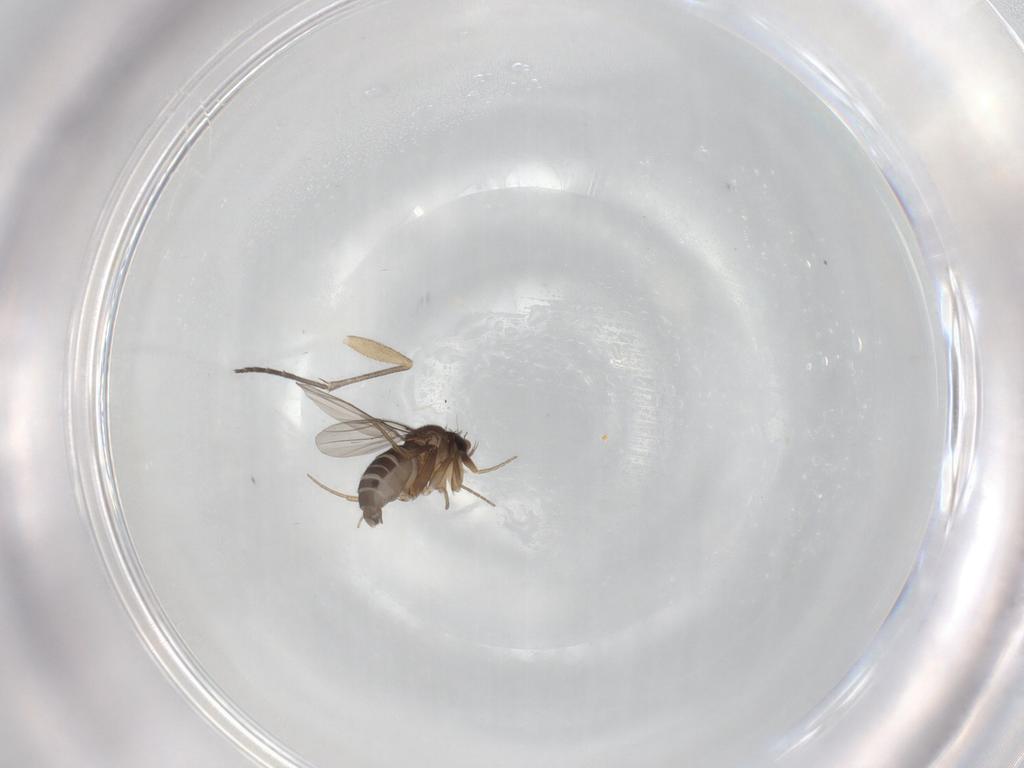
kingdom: Animalia
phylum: Arthropoda
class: Insecta
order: Diptera
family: Phoridae
